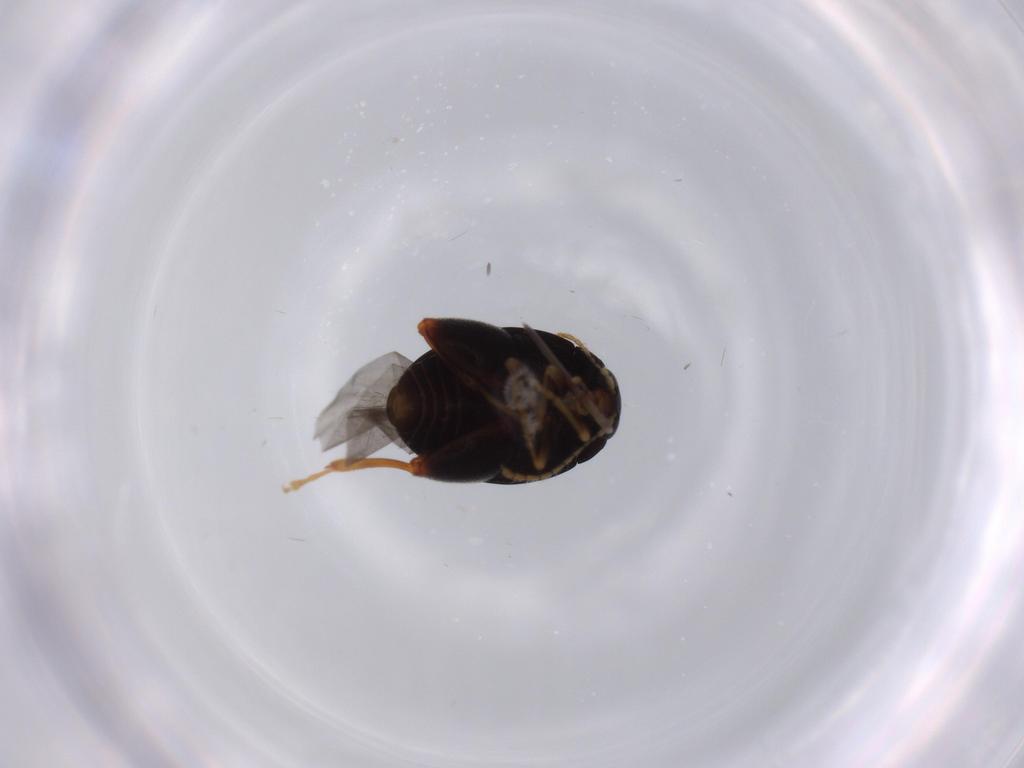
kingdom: Animalia
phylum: Arthropoda
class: Insecta
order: Coleoptera
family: Chrysomelidae
